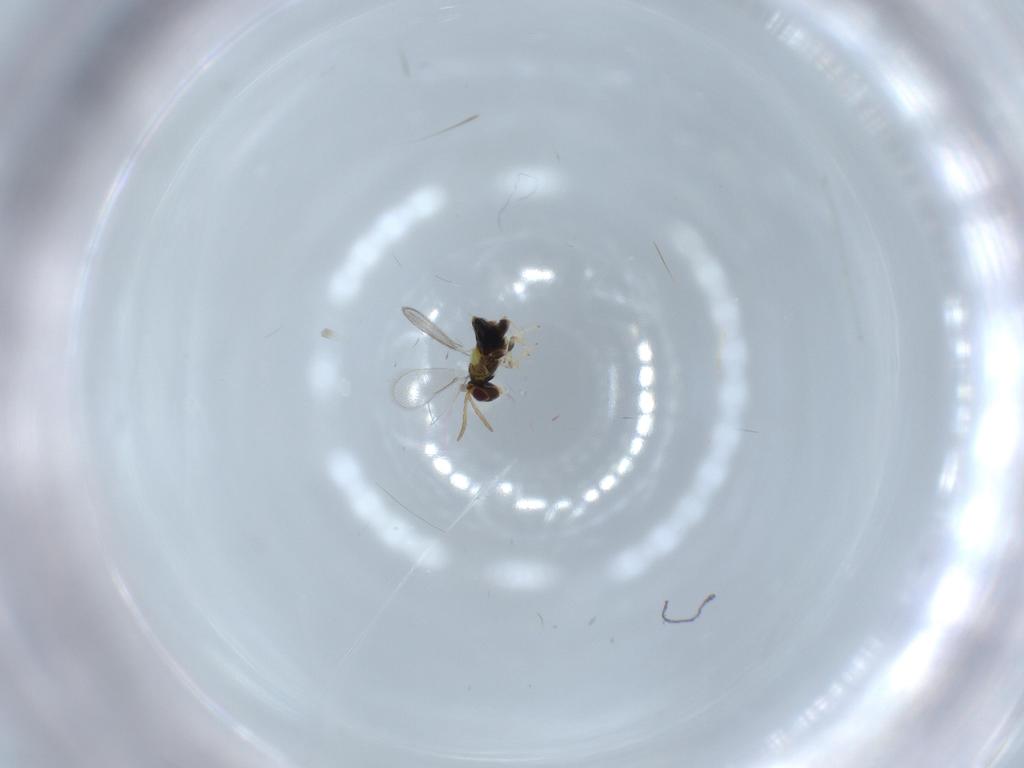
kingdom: Animalia
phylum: Arthropoda
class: Insecta
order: Hymenoptera
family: Aphelinidae
